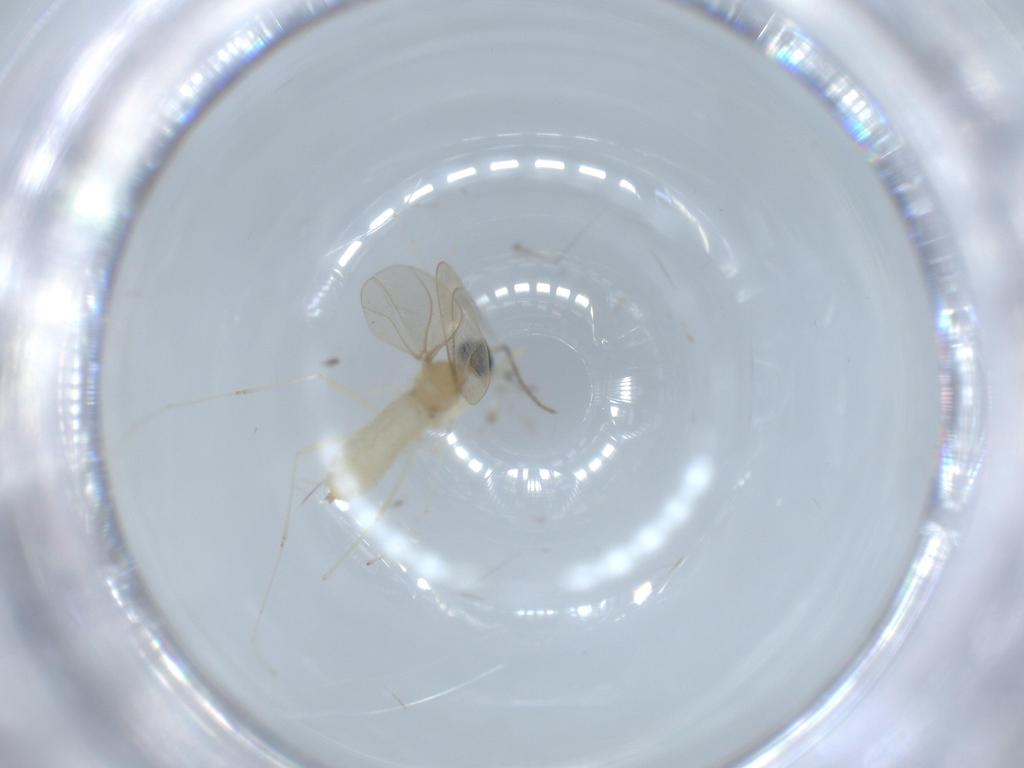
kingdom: Animalia
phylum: Arthropoda
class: Insecta
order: Diptera
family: Cecidomyiidae
